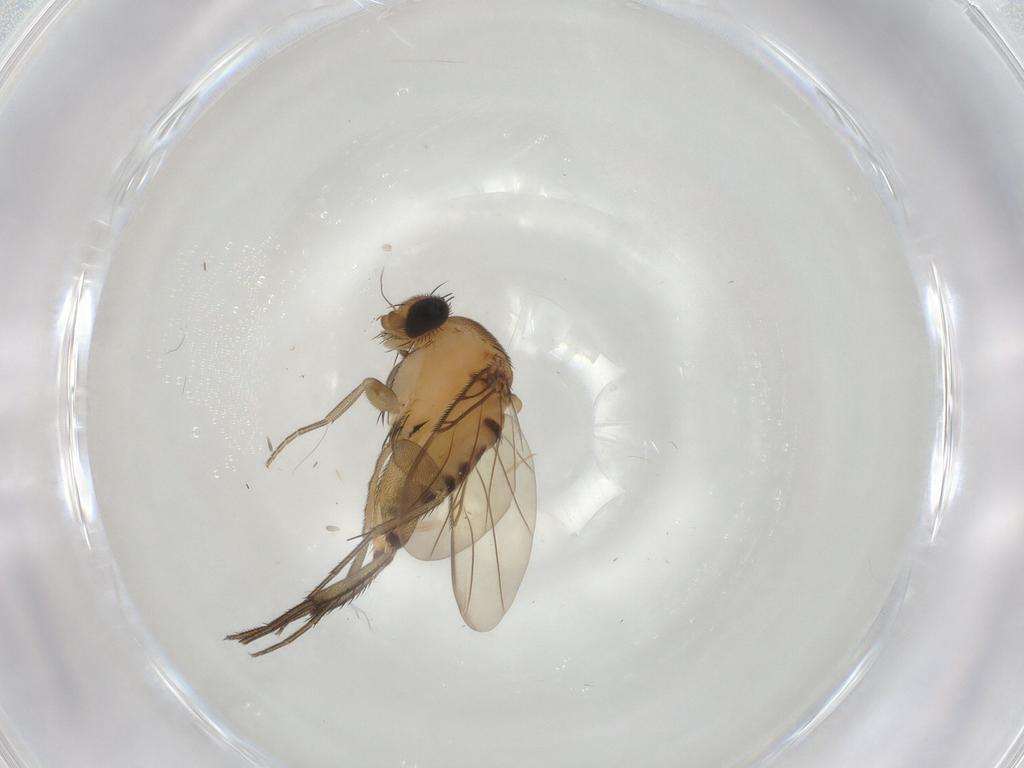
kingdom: Animalia
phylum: Arthropoda
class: Insecta
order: Diptera
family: Phoridae
